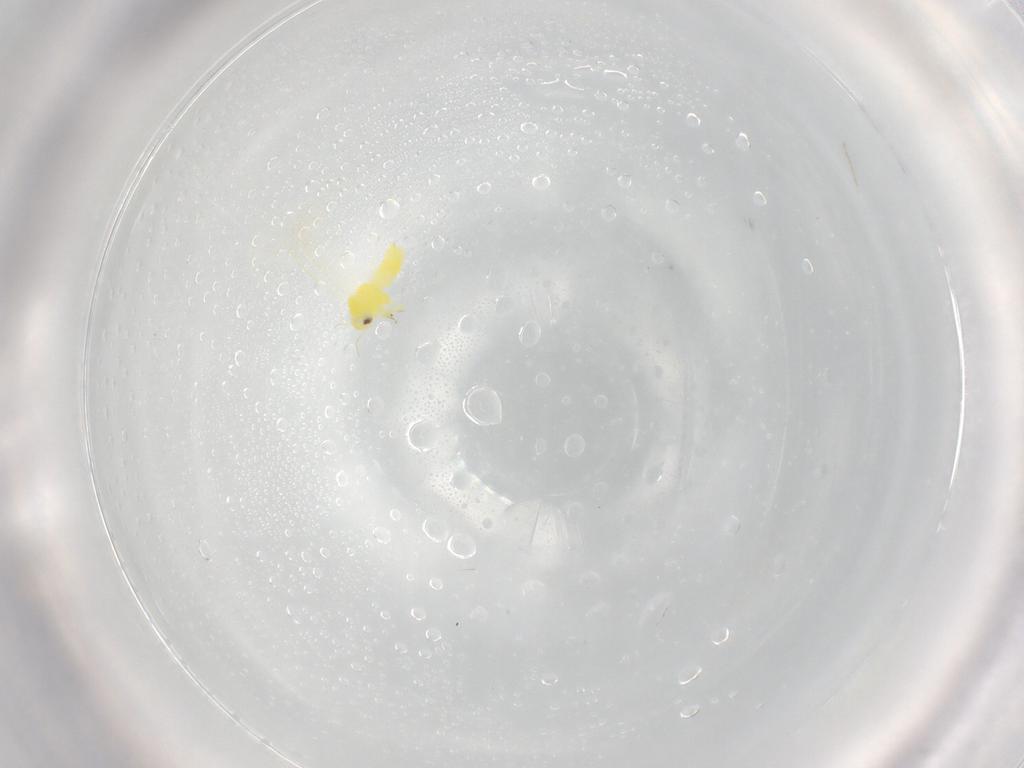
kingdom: Animalia
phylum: Arthropoda
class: Insecta
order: Hemiptera
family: Aleyrodidae
